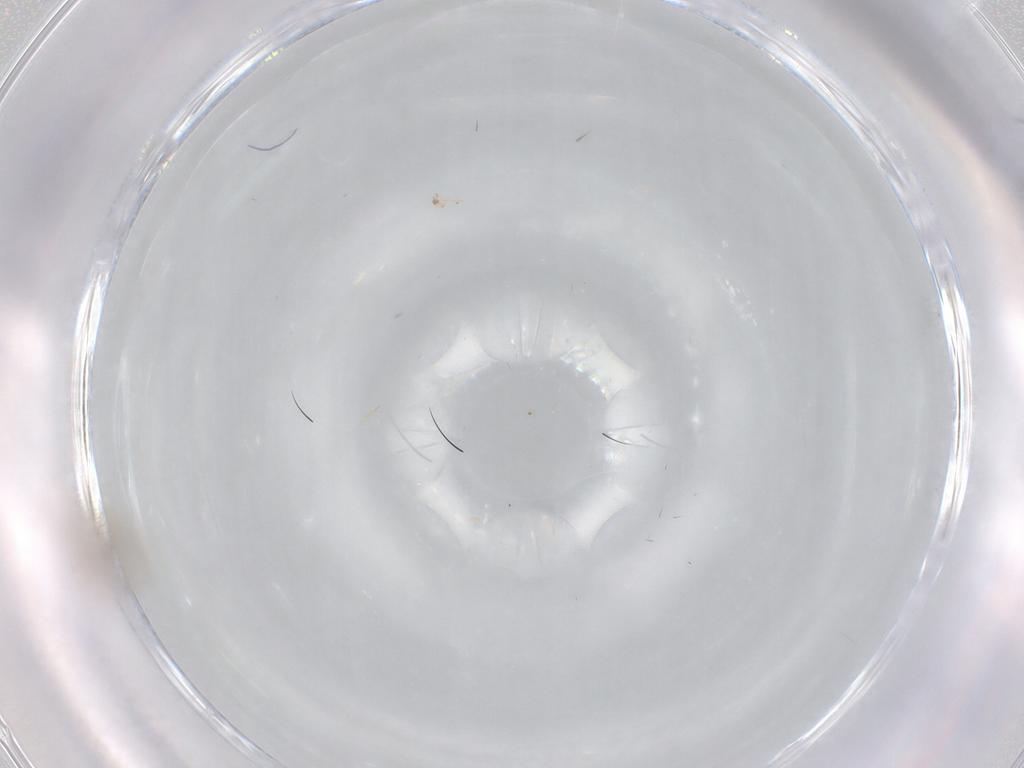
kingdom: Animalia
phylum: Arthropoda
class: Insecta
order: Diptera
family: Chironomidae
